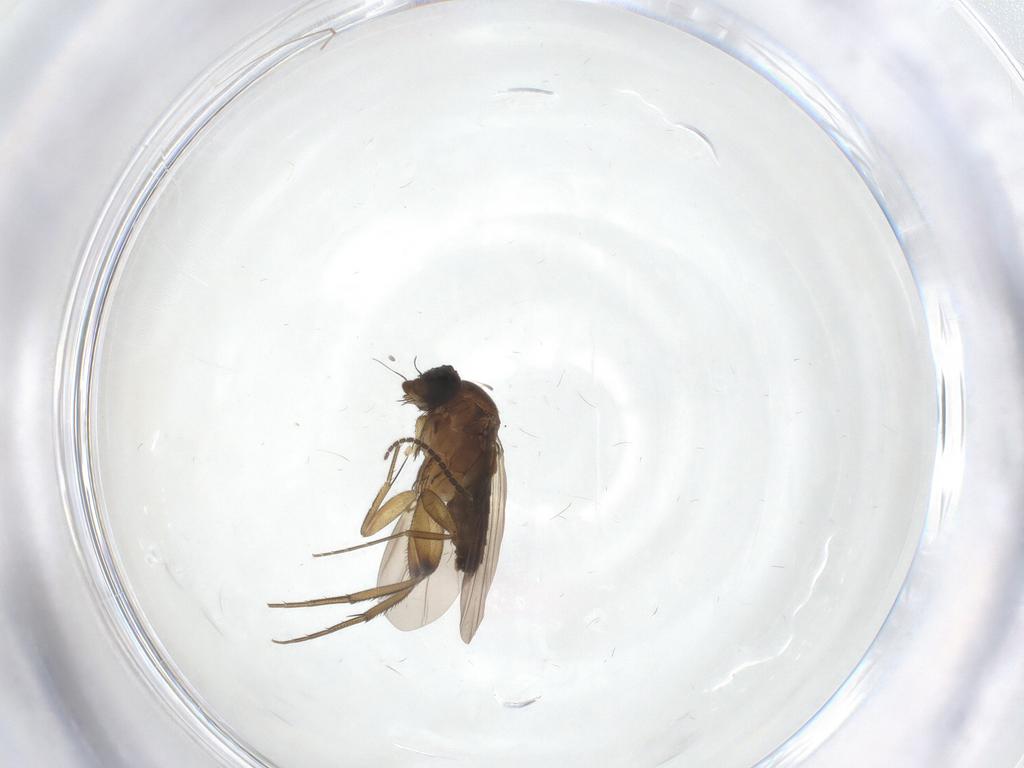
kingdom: Animalia
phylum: Arthropoda
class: Insecta
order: Diptera
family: Phoridae
